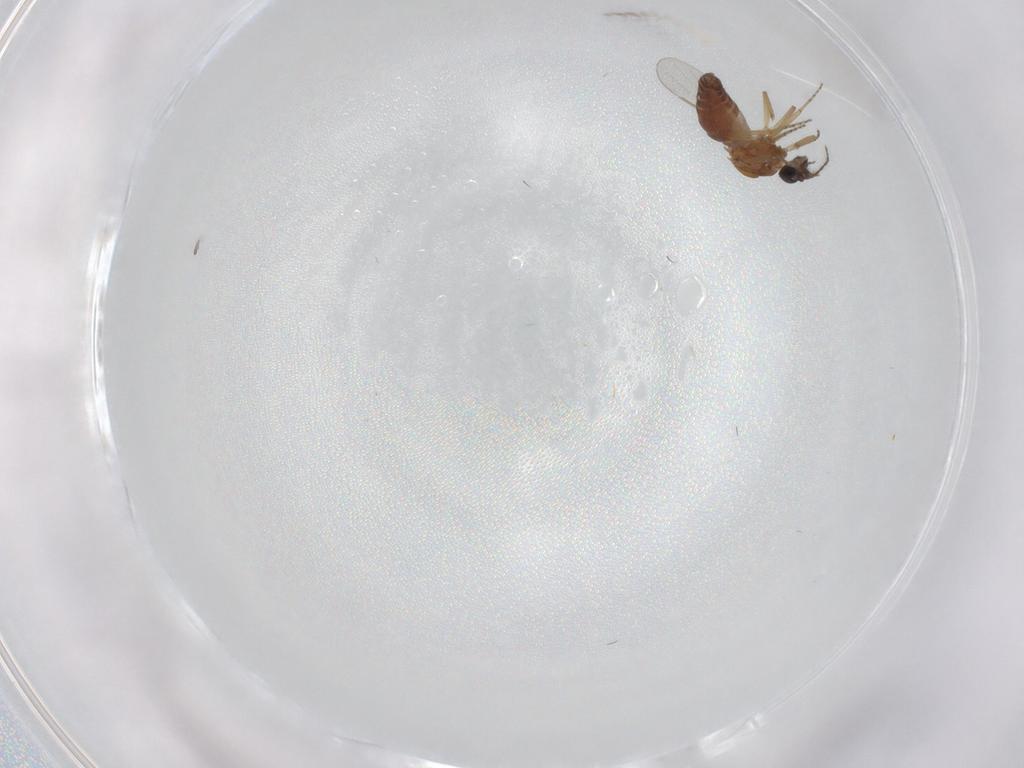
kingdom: Animalia
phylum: Arthropoda
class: Insecta
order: Diptera
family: Ceratopogonidae
